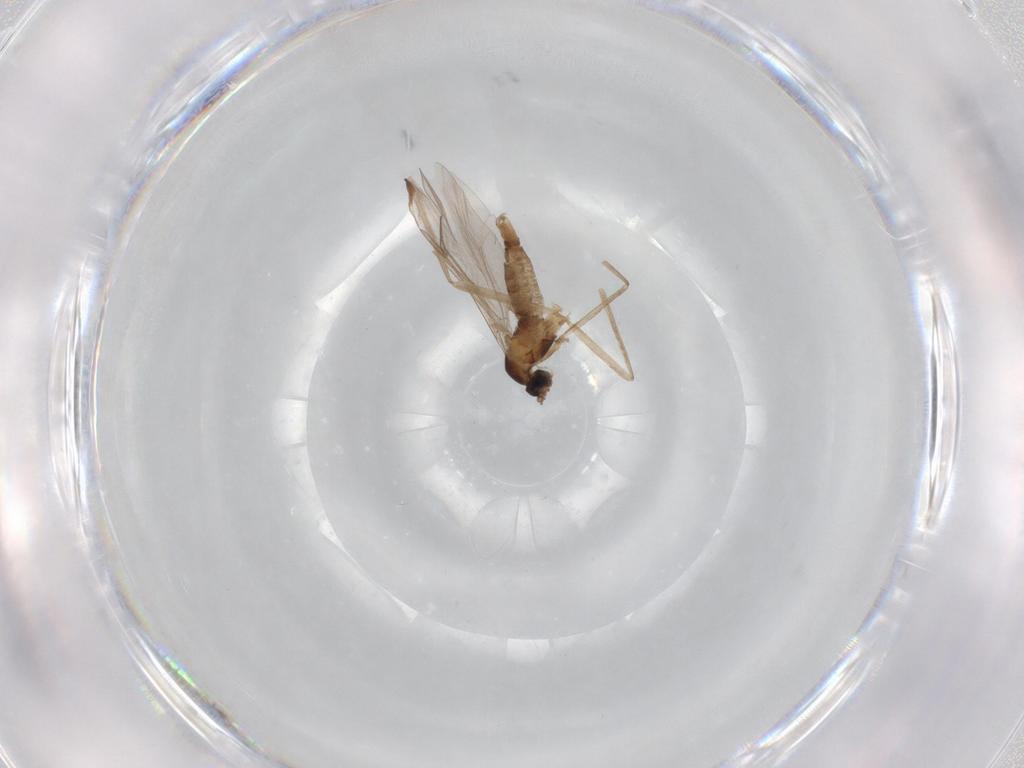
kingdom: Animalia
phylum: Arthropoda
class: Insecta
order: Diptera
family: Cecidomyiidae
